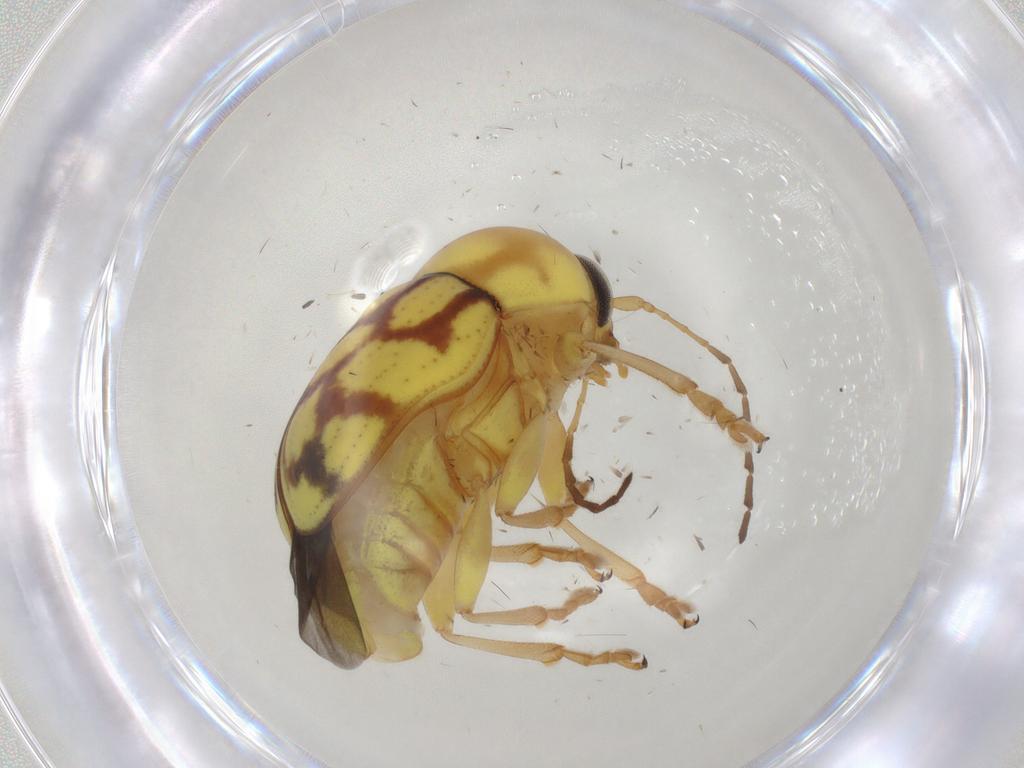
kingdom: Animalia
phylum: Arthropoda
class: Insecta
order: Coleoptera
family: Chrysomelidae
